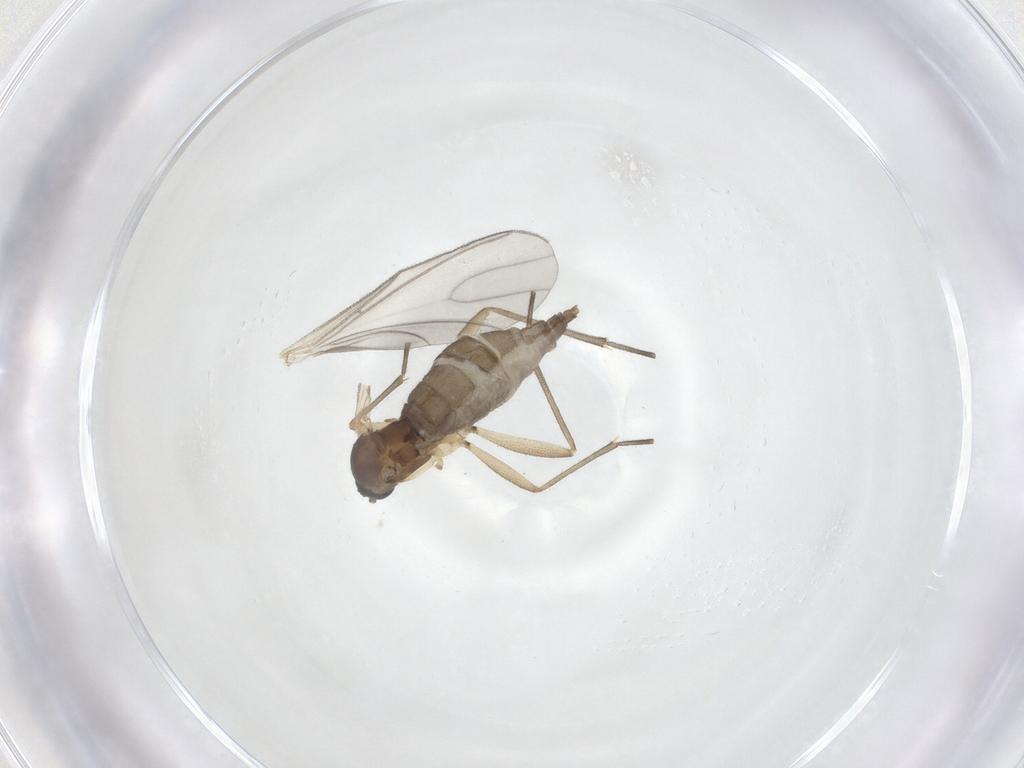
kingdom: Animalia
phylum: Arthropoda
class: Insecta
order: Diptera
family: Sciaridae
